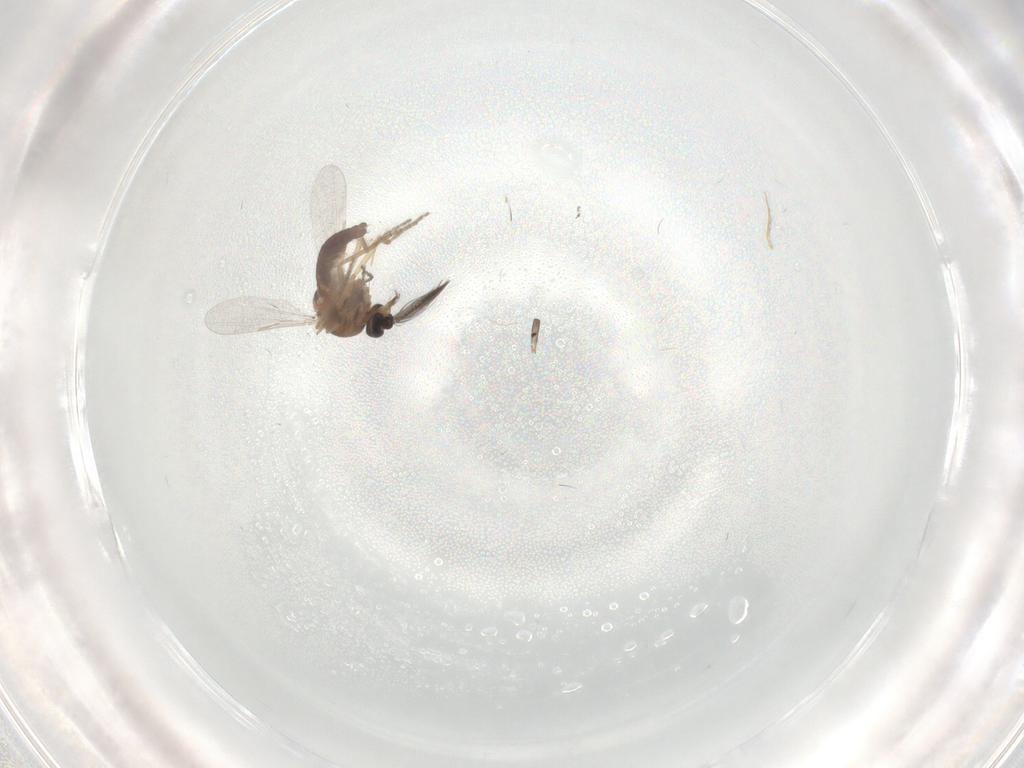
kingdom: Animalia
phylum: Arthropoda
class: Insecta
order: Diptera
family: Ceratopogonidae
